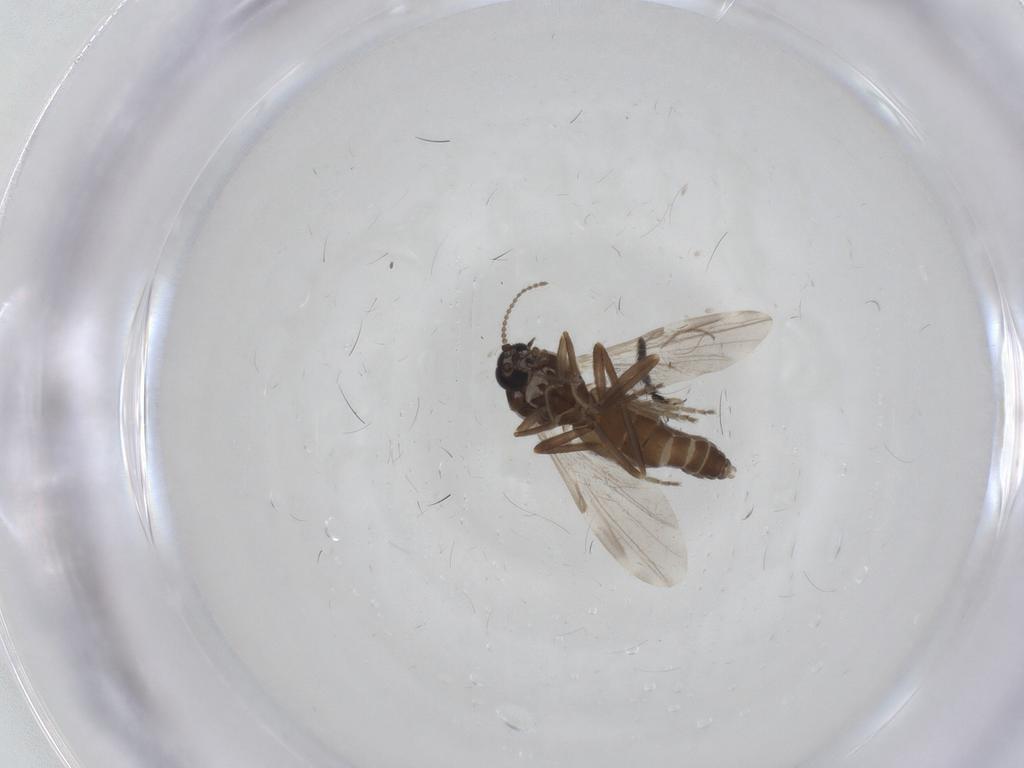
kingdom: Animalia
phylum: Arthropoda
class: Insecta
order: Diptera
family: Ceratopogonidae
